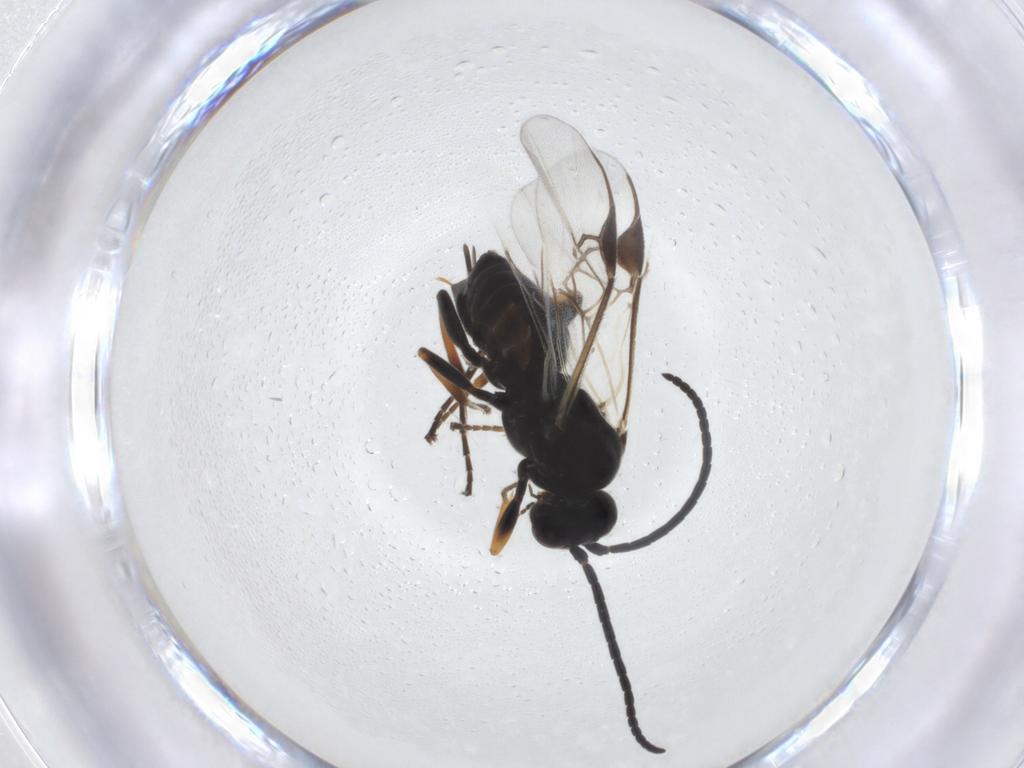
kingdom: Animalia
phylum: Arthropoda
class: Insecta
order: Hymenoptera
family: Braconidae
